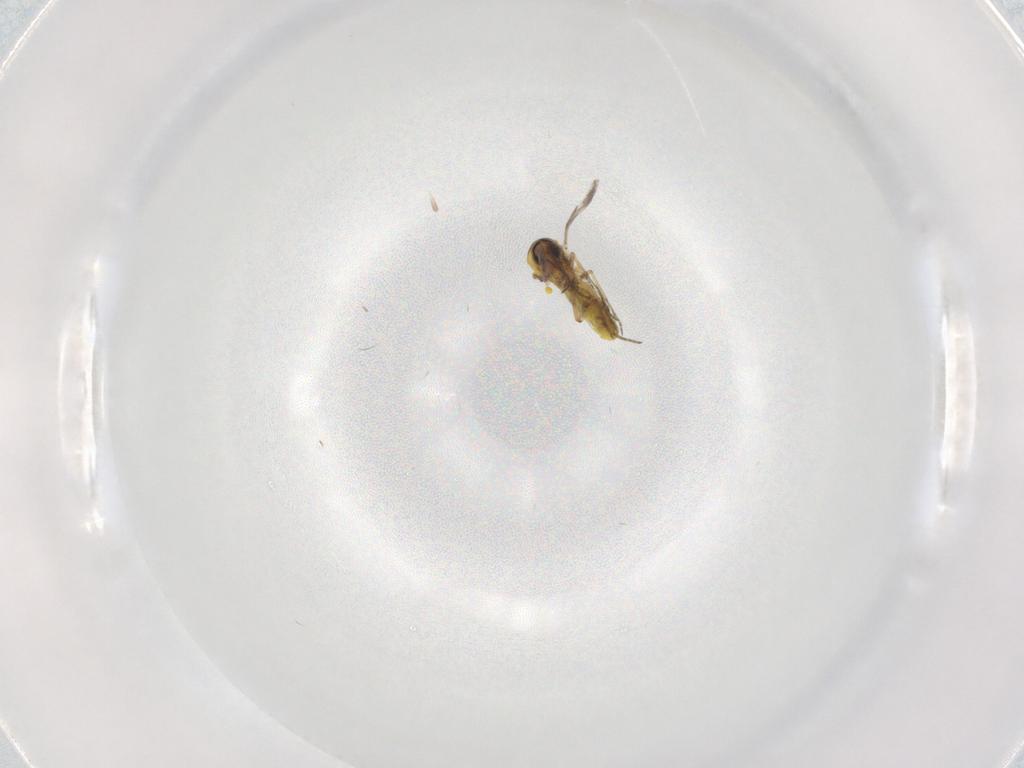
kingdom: Animalia
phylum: Arthropoda
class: Insecta
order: Diptera
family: Ceratopogonidae
